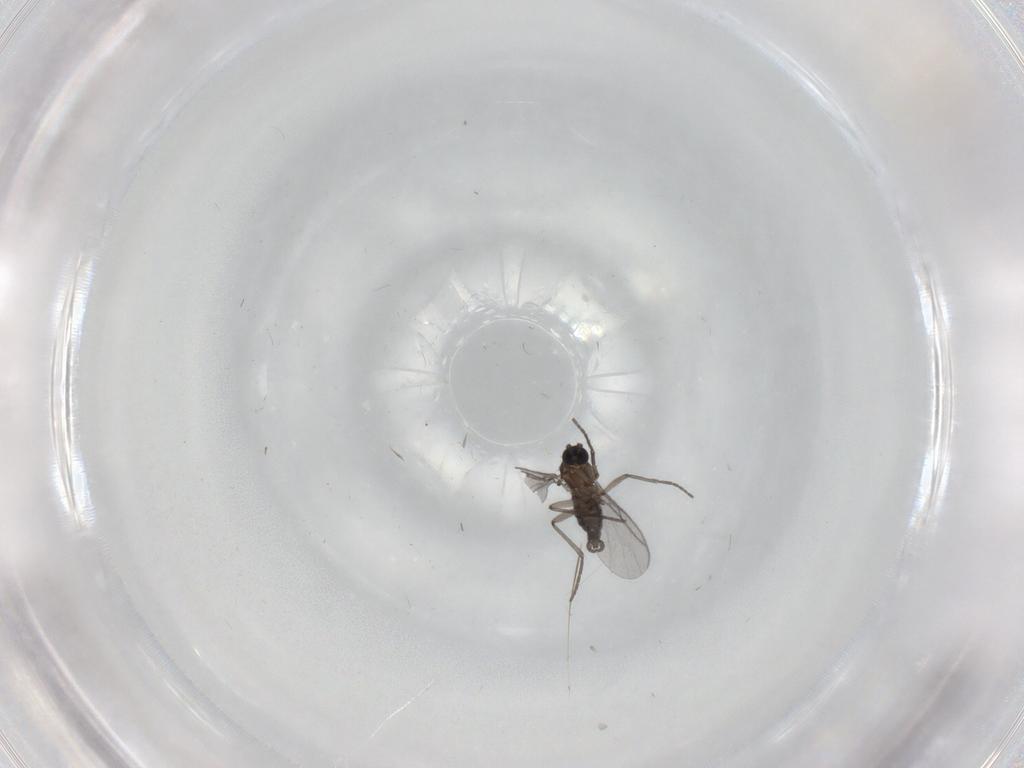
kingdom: Animalia
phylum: Arthropoda
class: Insecta
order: Diptera
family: Sciaridae
